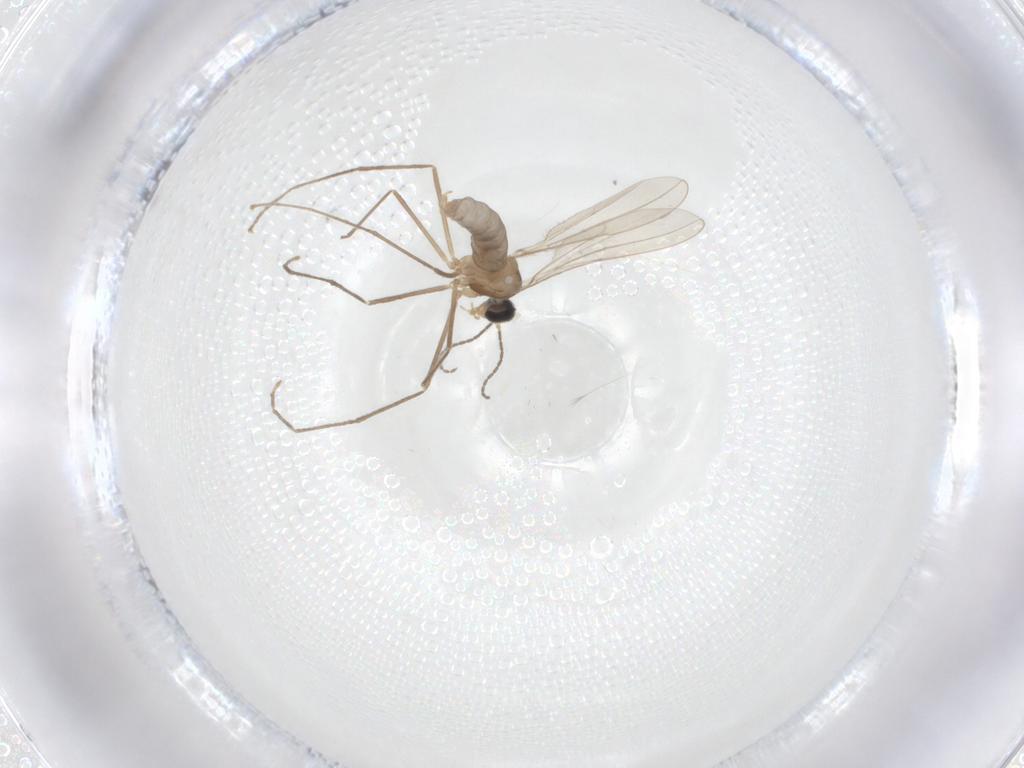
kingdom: Animalia
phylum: Arthropoda
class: Insecta
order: Diptera
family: Cecidomyiidae
